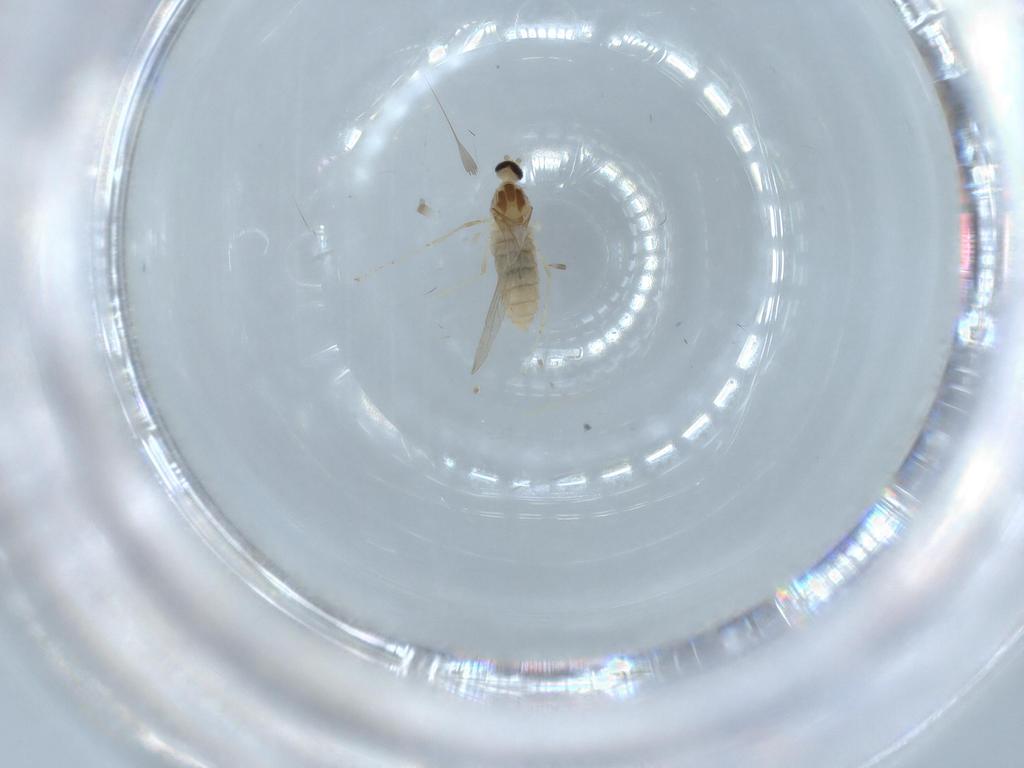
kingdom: Animalia
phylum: Arthropoda
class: Insecta
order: Diptera
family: Cecidomyiidae
